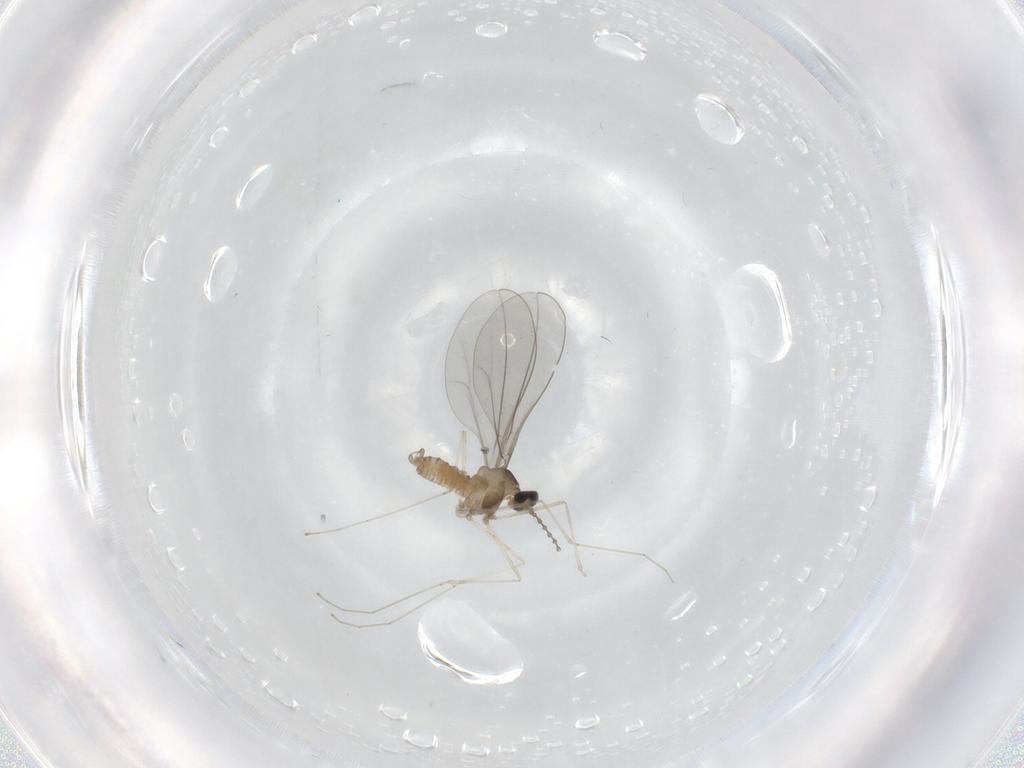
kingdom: Animalia
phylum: Arthropoda
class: Insecta
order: Diptera
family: Cecidomyiidae
